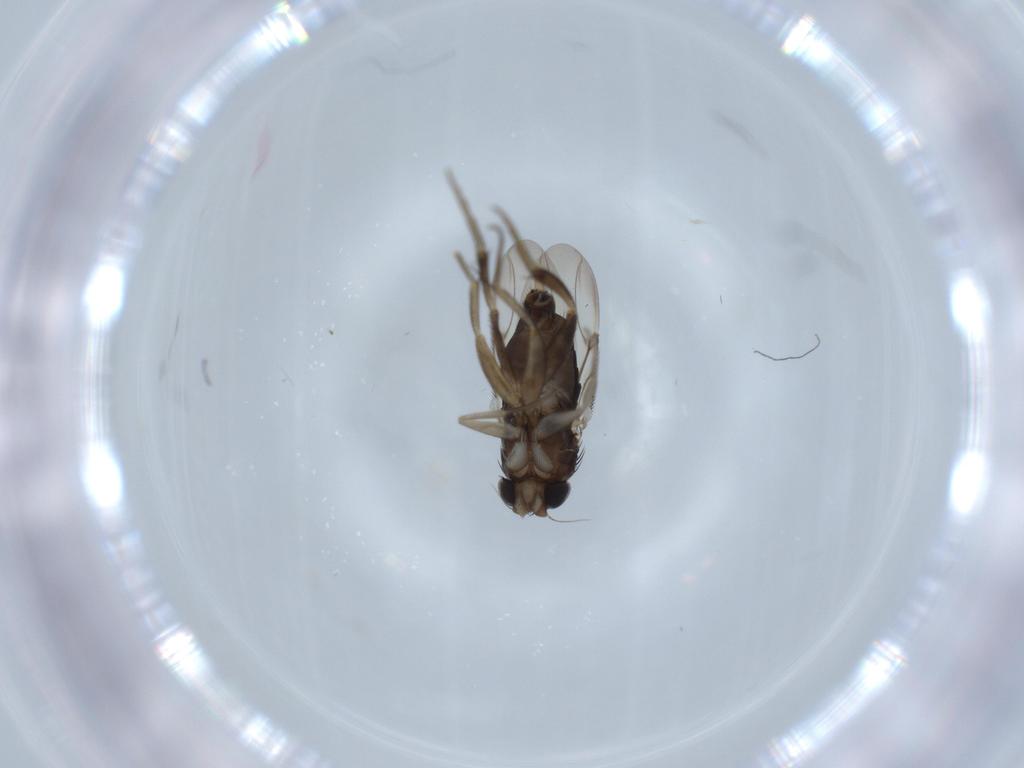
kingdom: Animalia
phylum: Arthropoda
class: Insecta
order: Diptera
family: Phoridae
